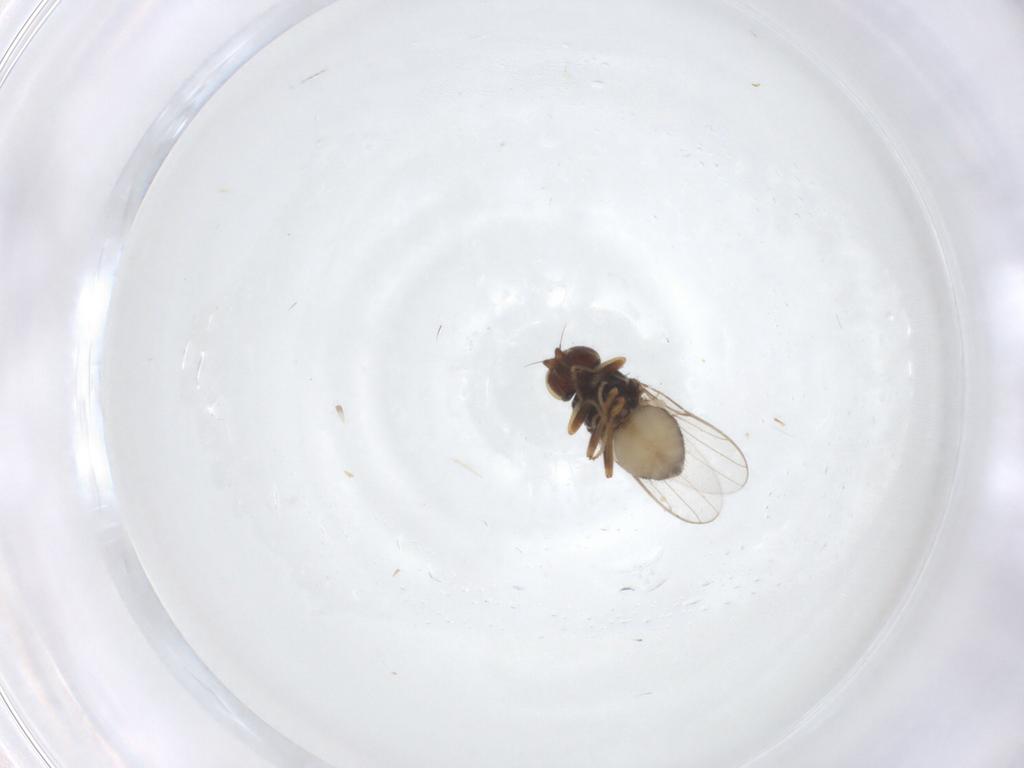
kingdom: Animalia
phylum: Arthropoda
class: Insecta
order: Diptera
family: Chloropidae
